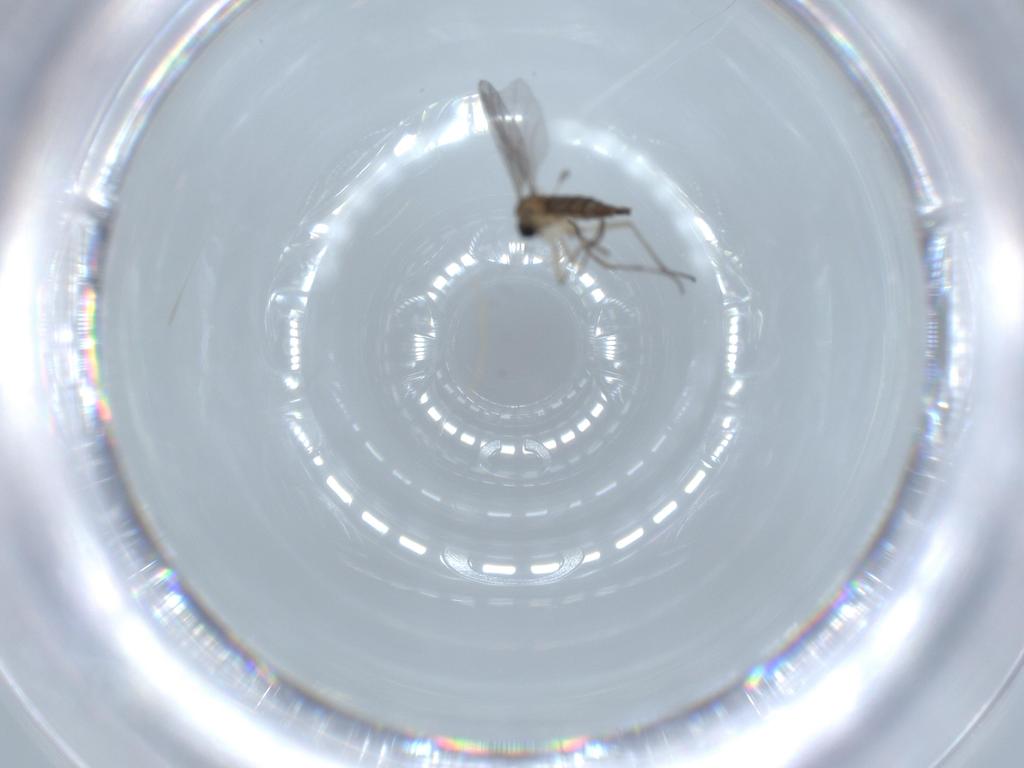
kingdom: Animalia
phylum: Arthropoda
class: Insecta
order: Diptera
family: Sciaridae
